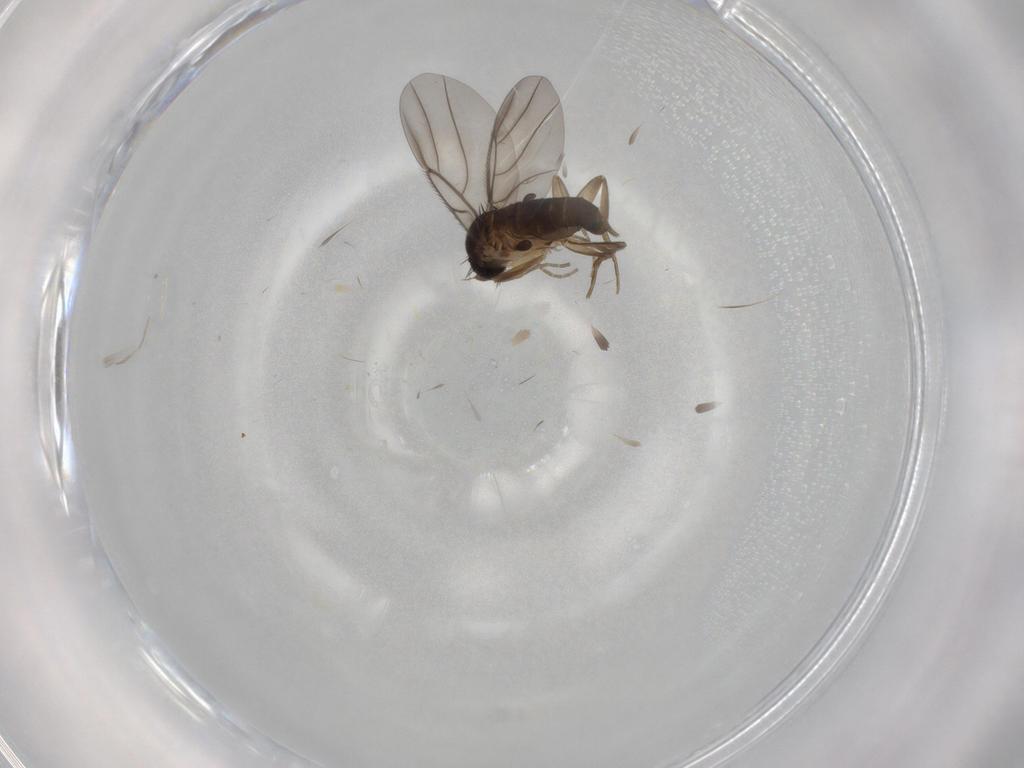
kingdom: Animalia
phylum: Arthropoda
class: Insecta
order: Diptera
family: Phoridae
